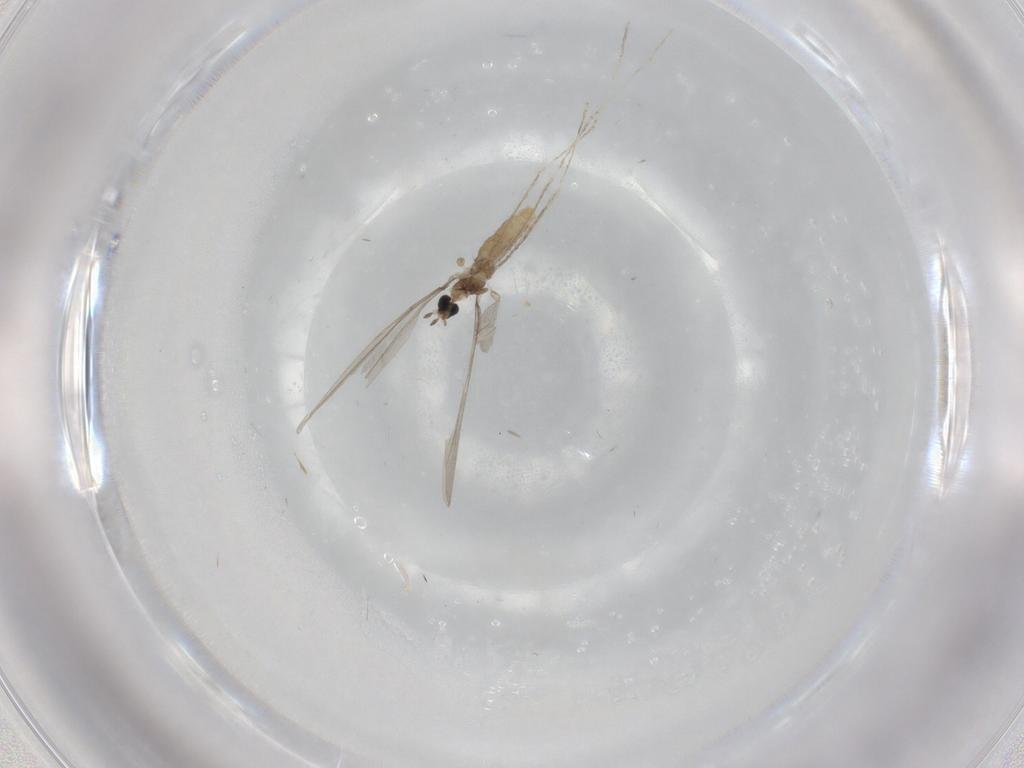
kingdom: Animalia
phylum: Arthropoda
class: Insecta
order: Diptera
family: Cecidomyiidae
